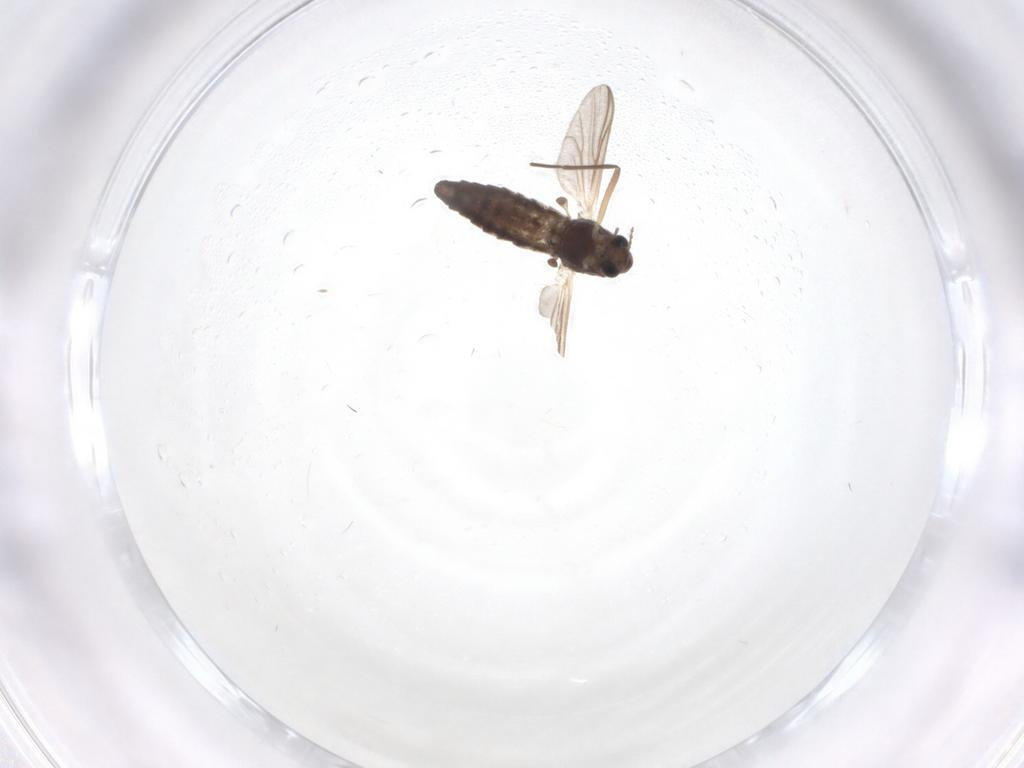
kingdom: Animalia
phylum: Arthropoda
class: Insecta
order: Diptera
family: Chironomidae
